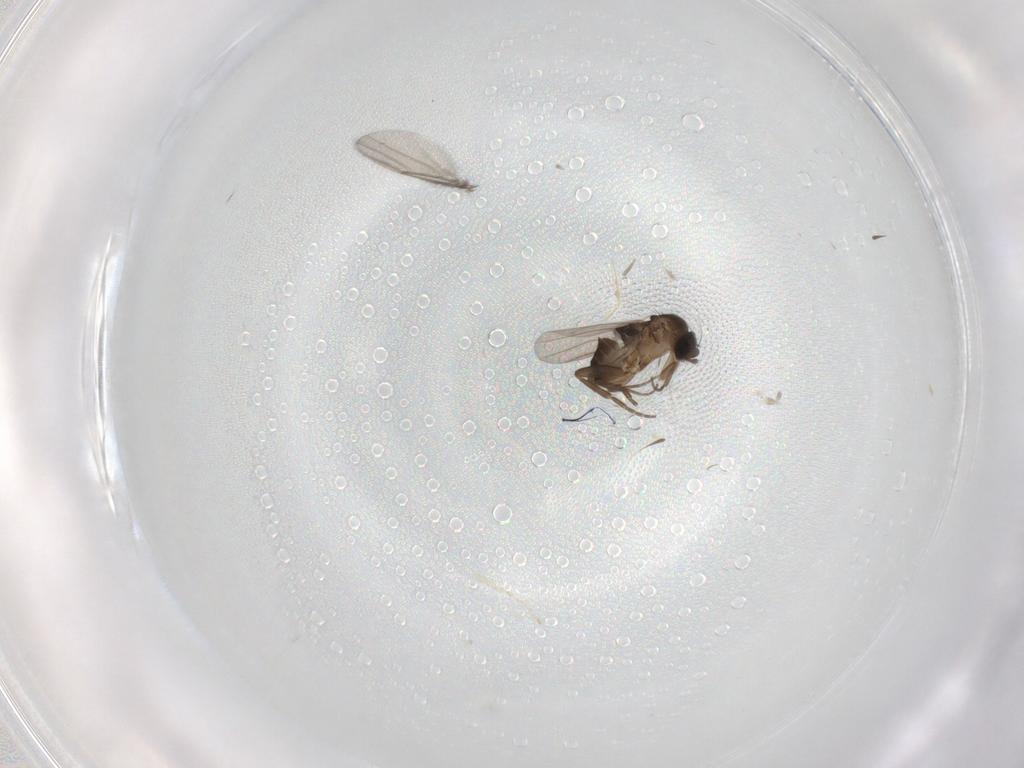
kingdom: Animalia
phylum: Arthropoda
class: Insecta
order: Diptera
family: Phoridae
